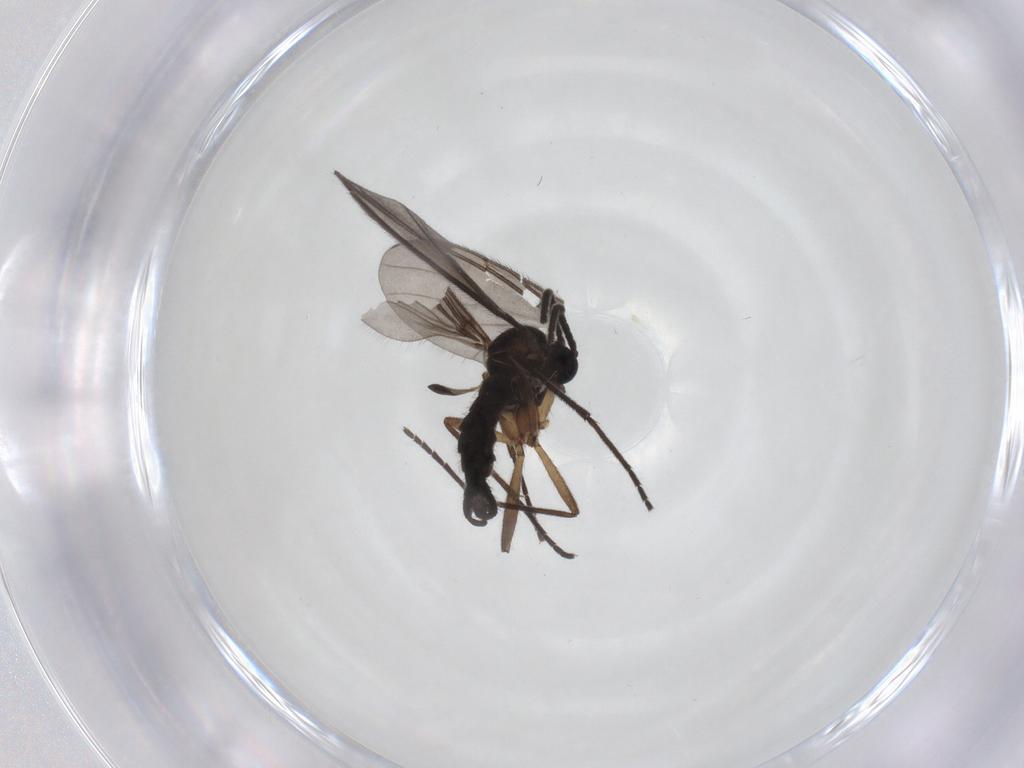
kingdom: Animalia
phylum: Arthropoda
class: Insecta
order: Diptera
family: Sciaridae
